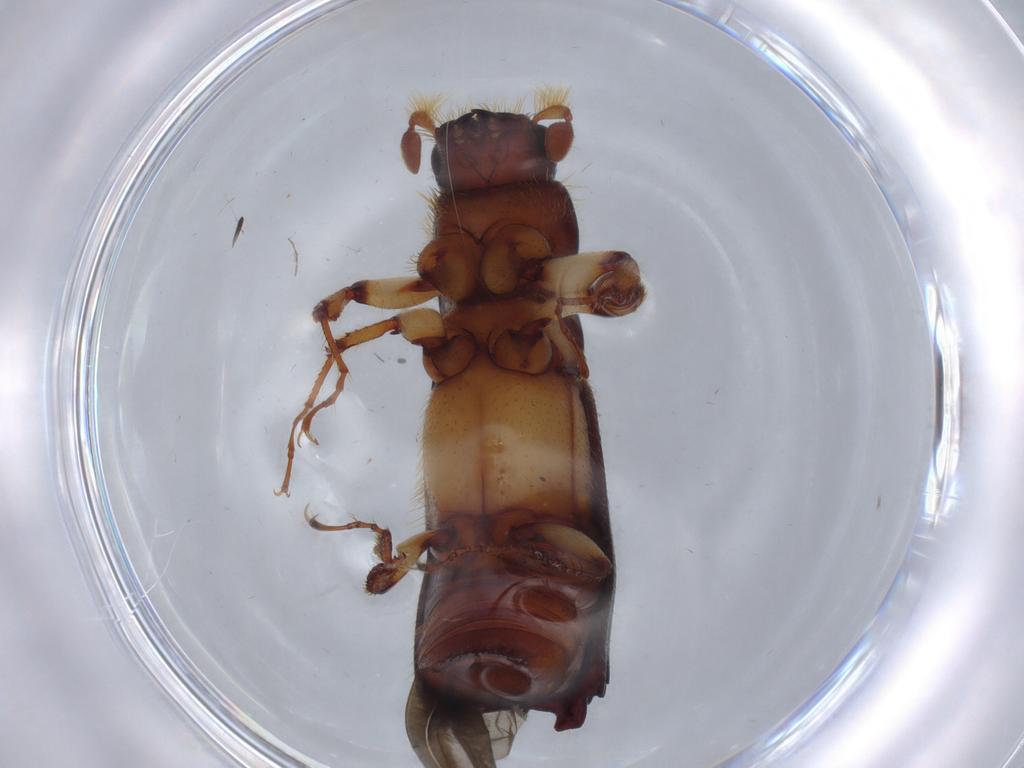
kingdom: Animalia
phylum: Arthropoda
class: Insecta
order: Coleoptera
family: Curculionidae
